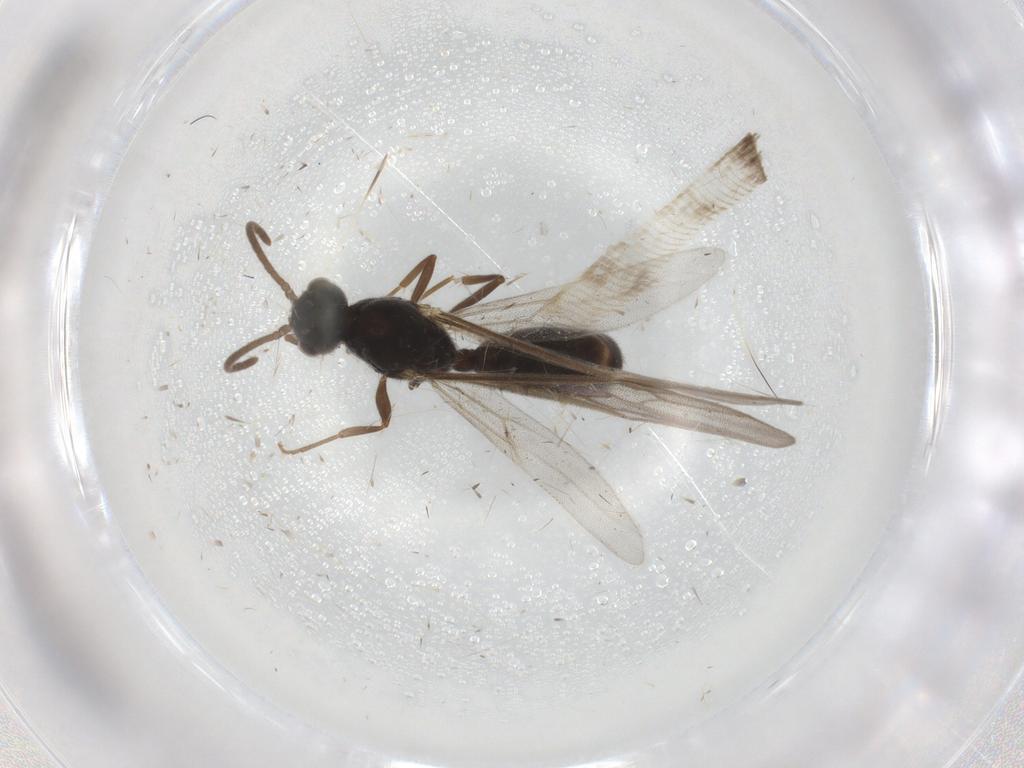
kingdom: Animalia
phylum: Arthropoda
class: Insecta
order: Hymenoptera
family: Formicidae
